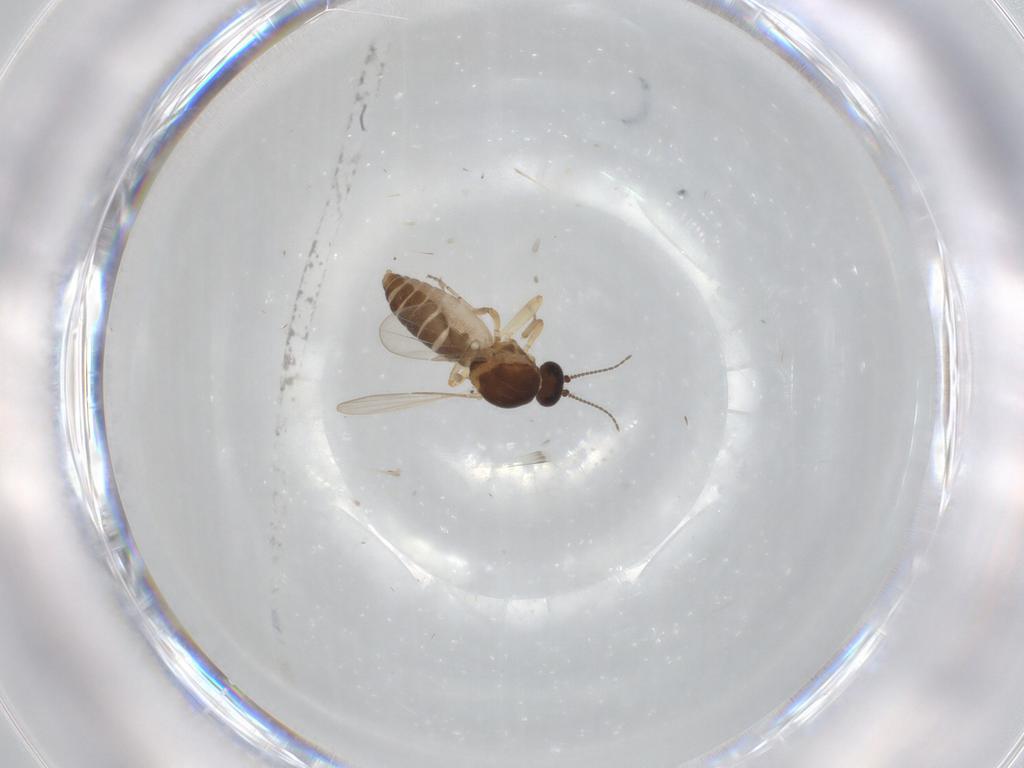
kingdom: Animalia
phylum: Arthropoda
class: Insecta
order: Diptera
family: Ceratopogonidae
